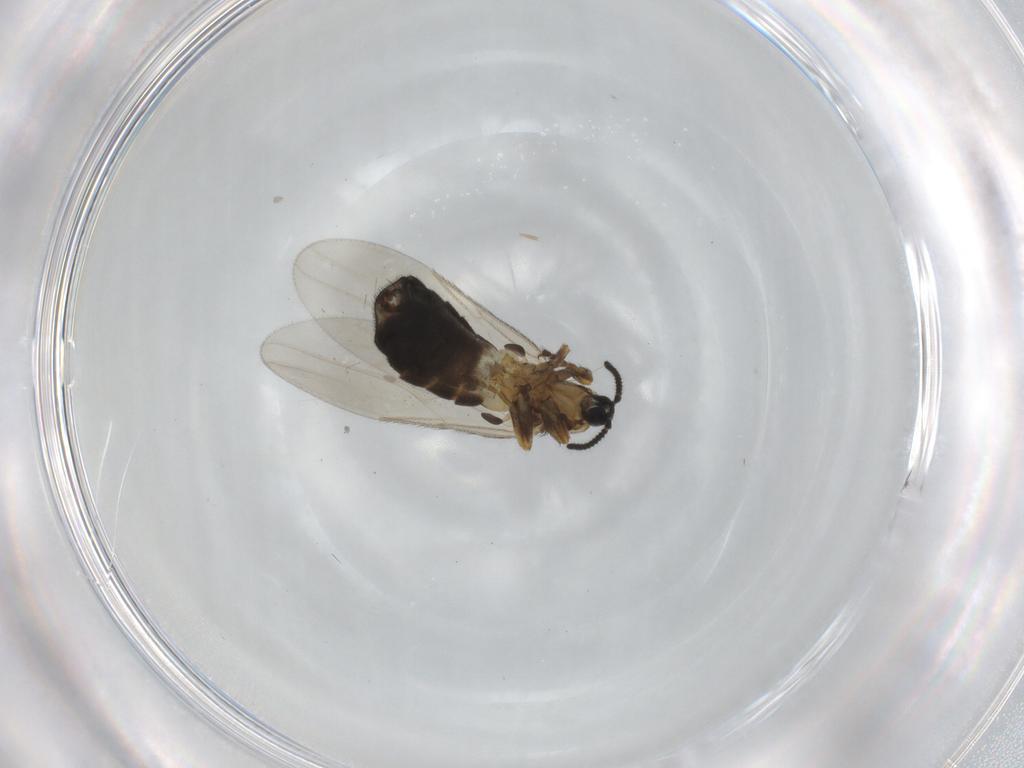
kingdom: Animalia
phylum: Arthropoda
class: Insecta
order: Diptera
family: Scatopsidae
